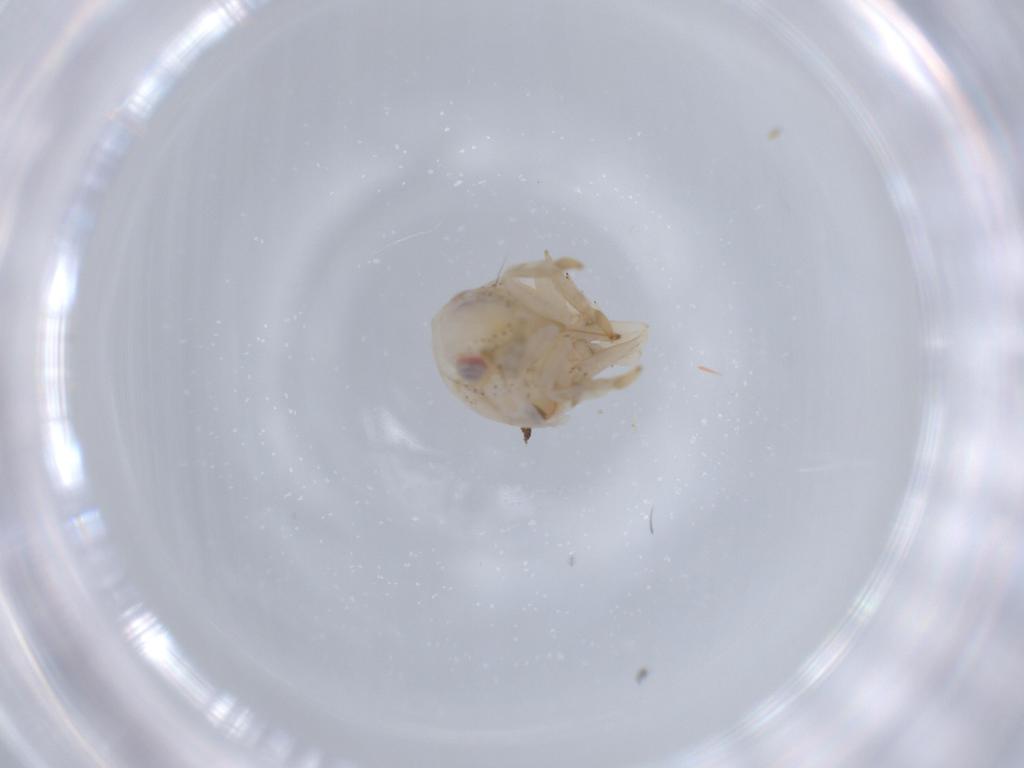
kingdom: Animalia
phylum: Arthropoda
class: Insecta
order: Hemiptera
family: Acanaloniidae
